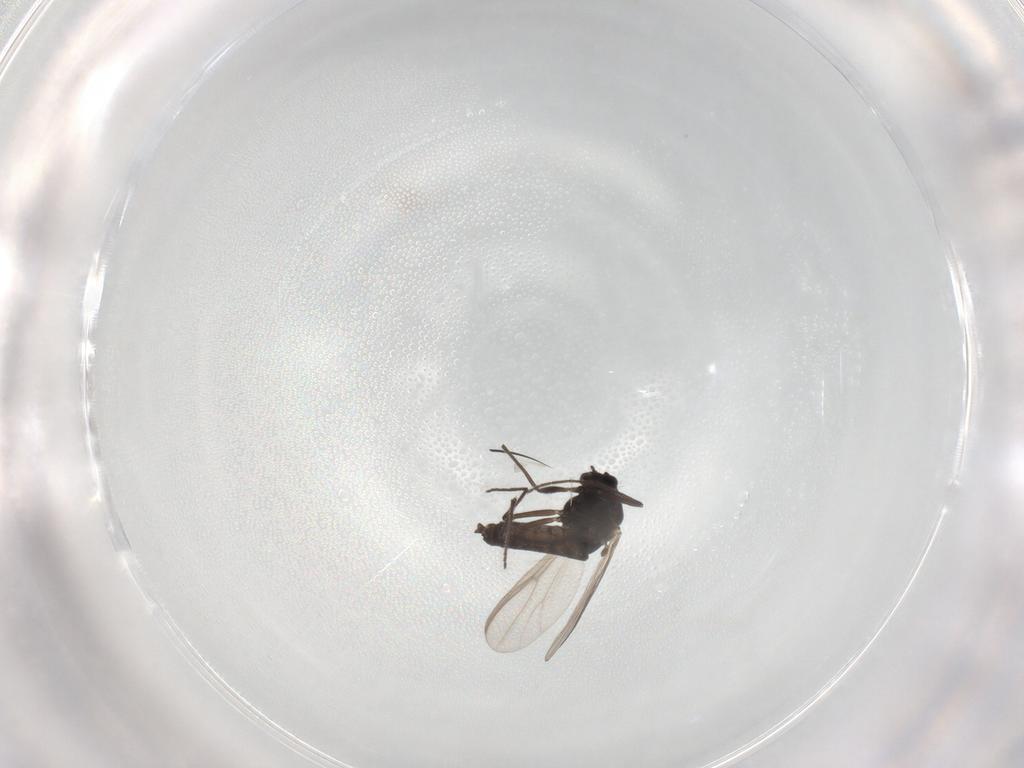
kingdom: Animalia
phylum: Arthropoda
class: Insecta
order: Diptera
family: Chironomidae
